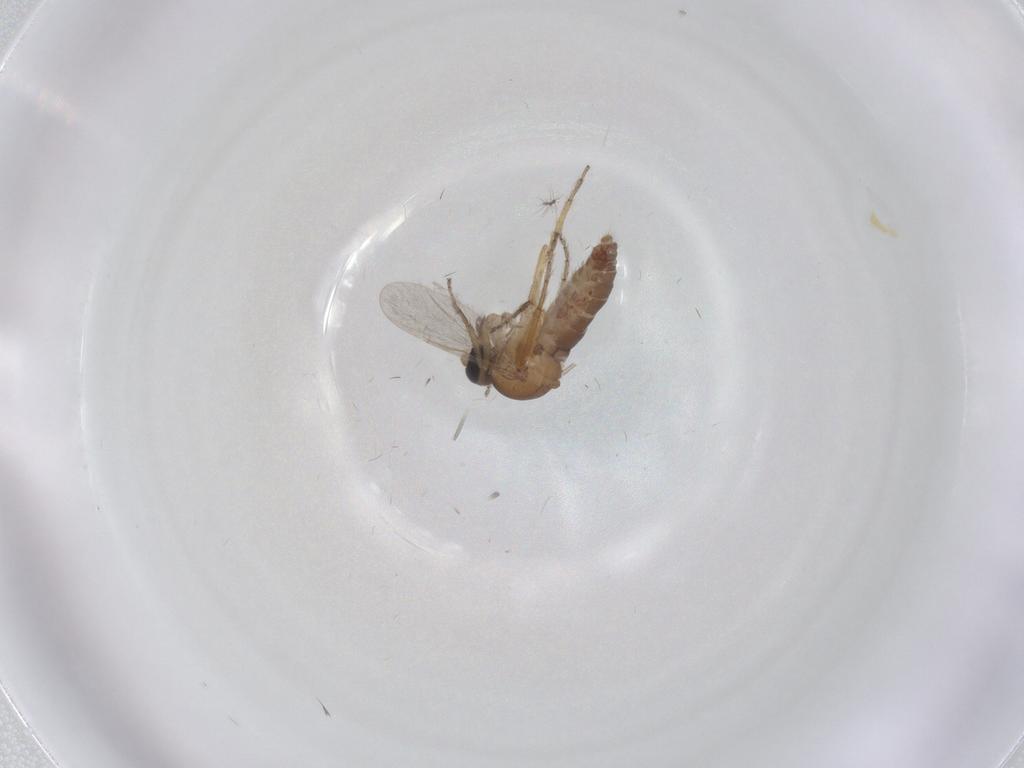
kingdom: Animalia
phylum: Arthropoda
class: Insecta
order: Diptera
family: Ceratopogonidae
